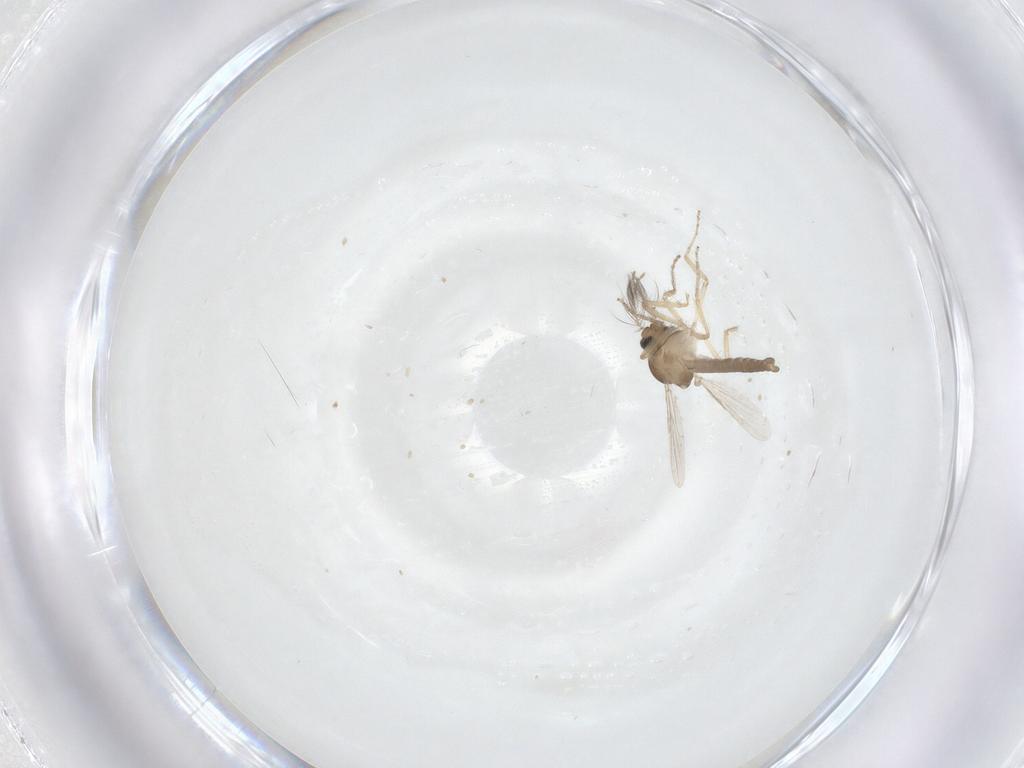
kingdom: Animalia
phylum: Arthropoda
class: Insecta
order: Diptera
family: Ceratopogonidae
